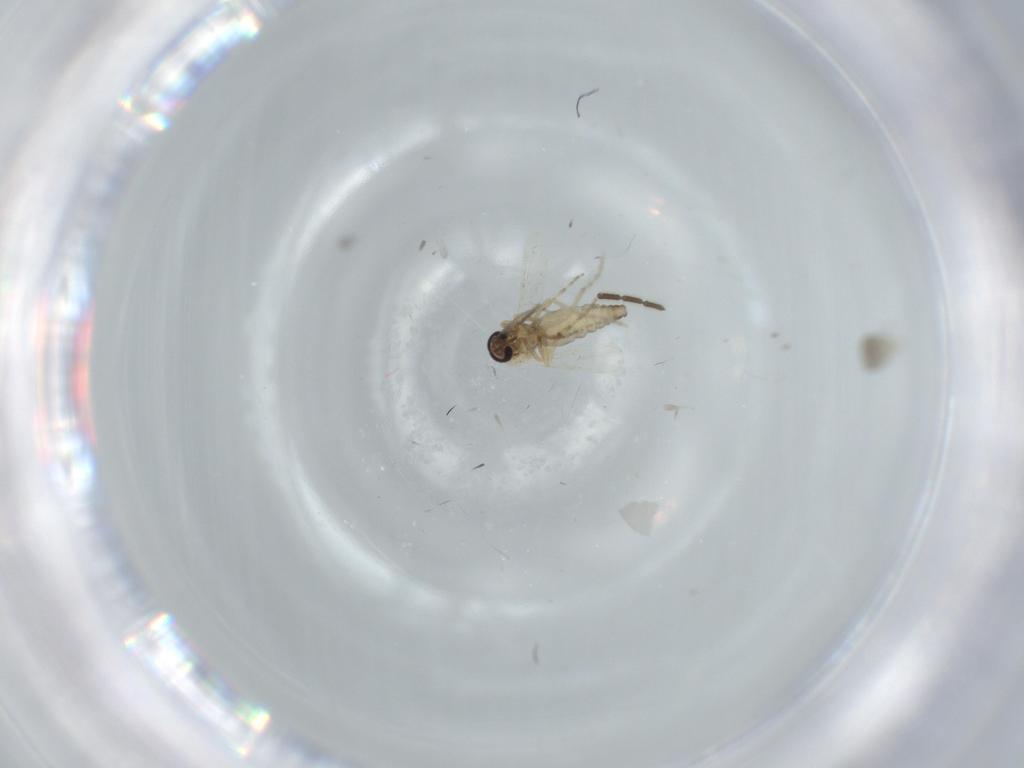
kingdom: Animalia
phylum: Arthropoda
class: Insecta
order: Diptera
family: Ceratopogonidae
